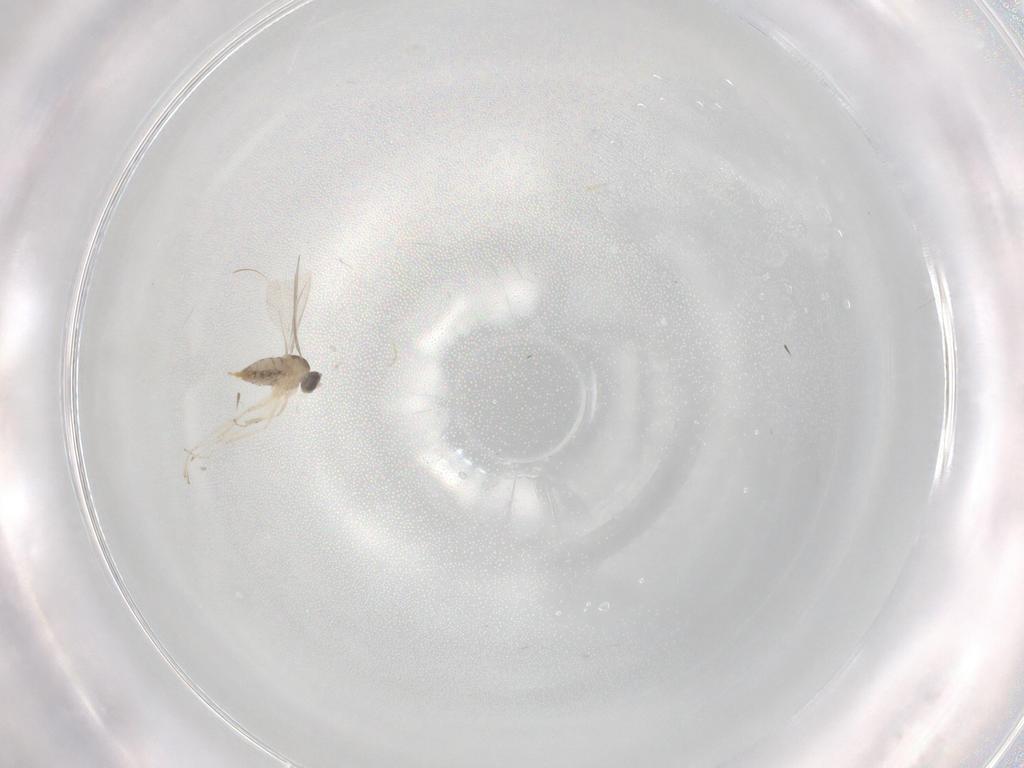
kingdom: Animalia
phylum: Arthropoda
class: Insecta
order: Diptera
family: Cecidomyiidae
